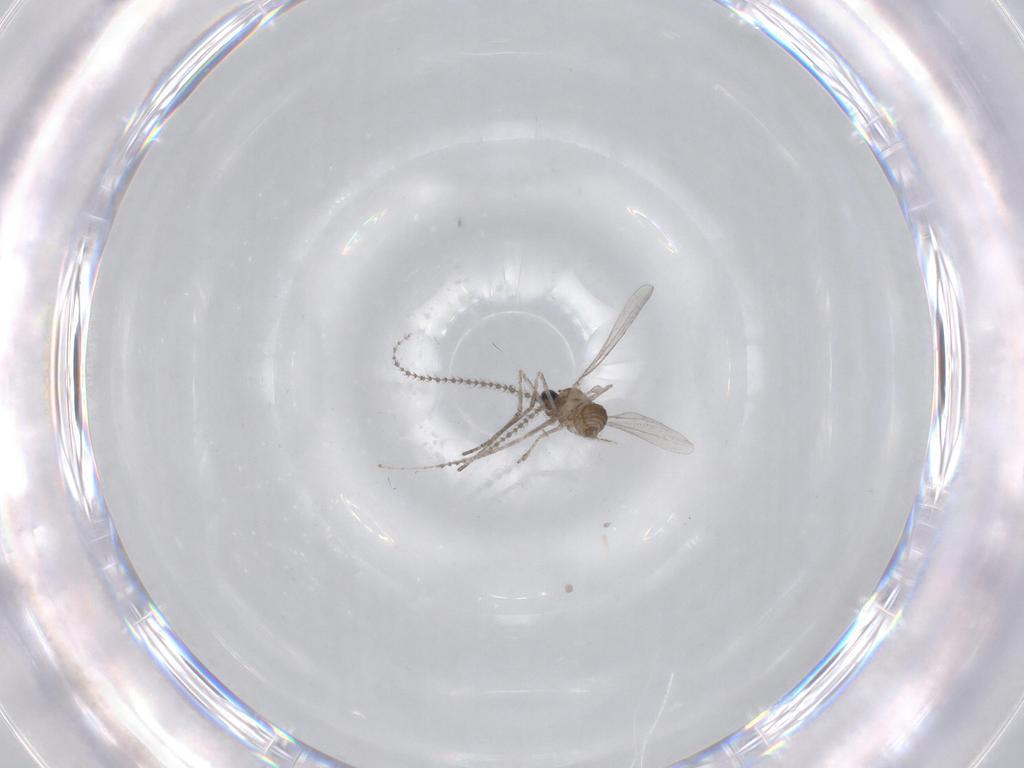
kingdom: Animalia
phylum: Arthropoda
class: Insecta
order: Diptera
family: Cecidomyiidae
